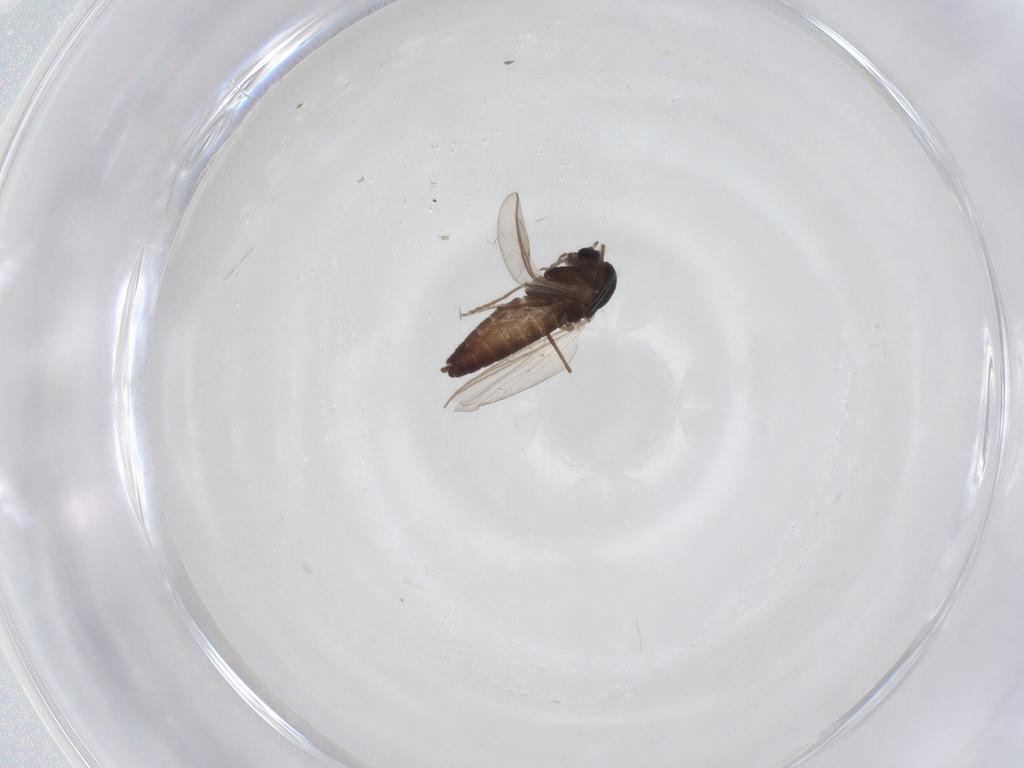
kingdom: Animalia
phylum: Arthropoda
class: Insecta
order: Diptera
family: Chironomidae
